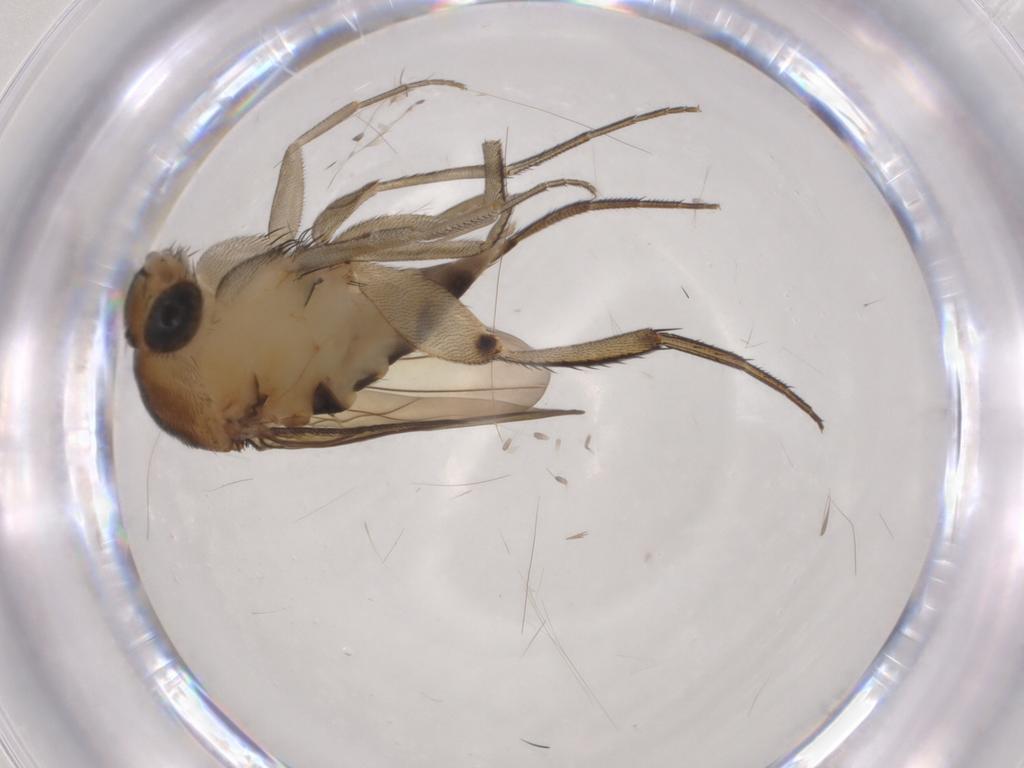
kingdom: Animalia
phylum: Arthropoda
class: Insecta
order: Diptera
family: Phoridae
